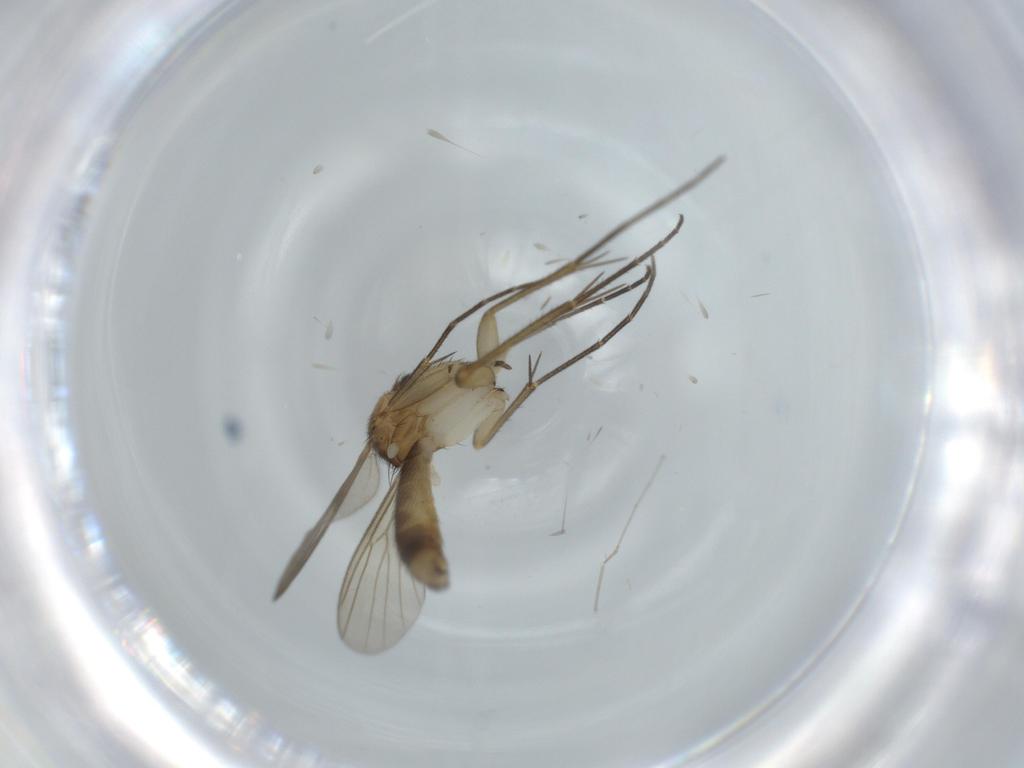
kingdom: Animalia
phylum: Arthropoda
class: Insecta
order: Diptera
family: Mycetophilidae
